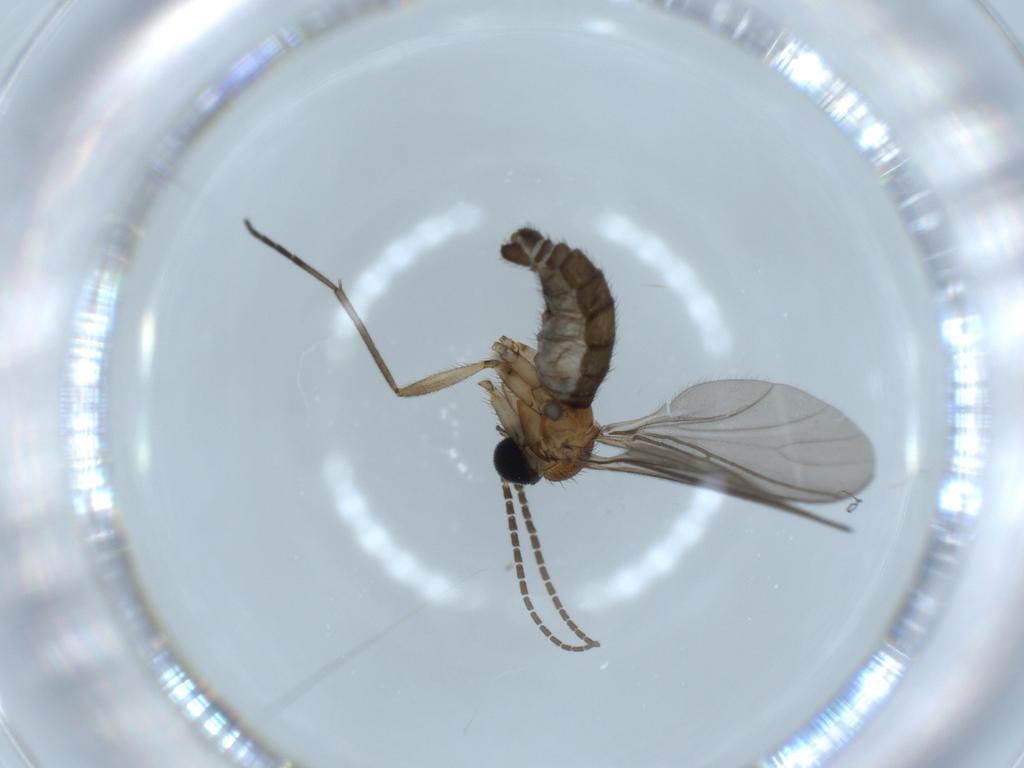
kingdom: Animalia
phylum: Arthropoda
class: Insecta
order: Diptera
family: Sciaridae
